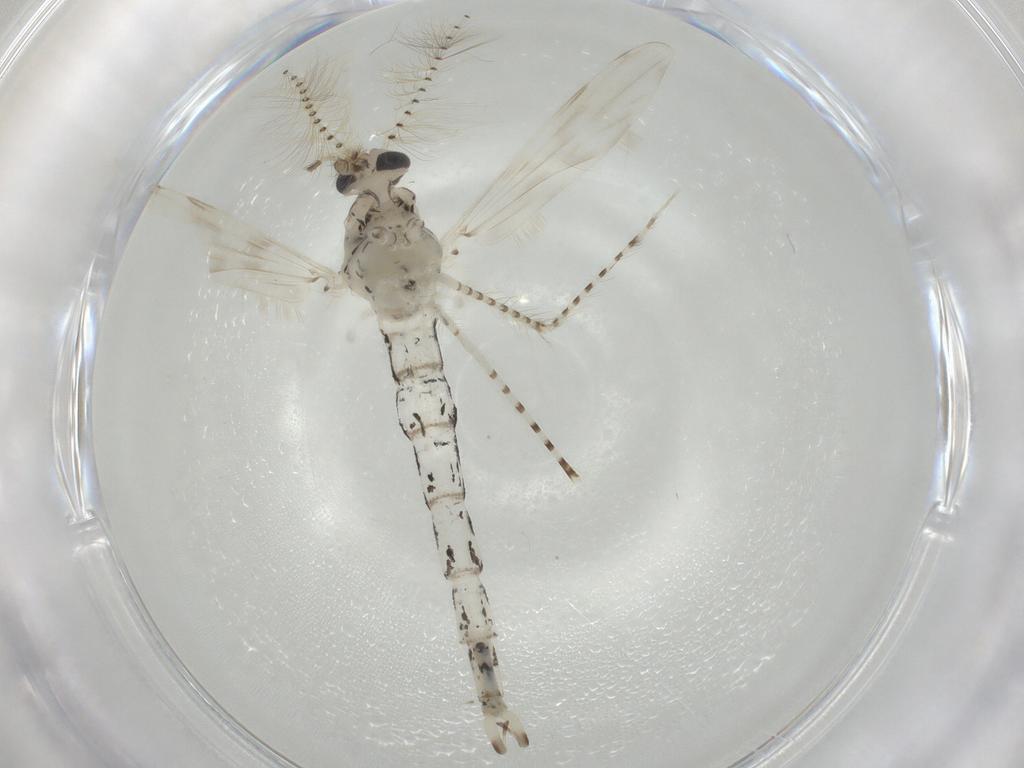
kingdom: Animalia
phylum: Arthropoda
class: Insecta
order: Diptera
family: Chaoboridae
